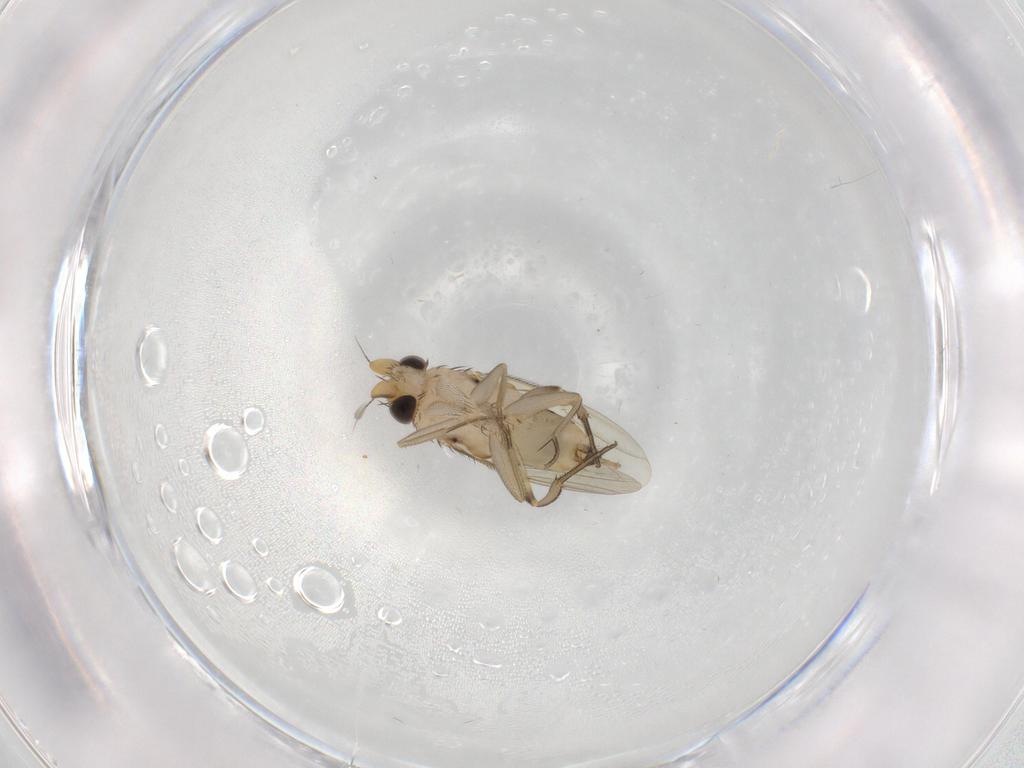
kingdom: Animalia
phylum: Arthropoda
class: Insecta
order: Diptera
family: Phoridae
